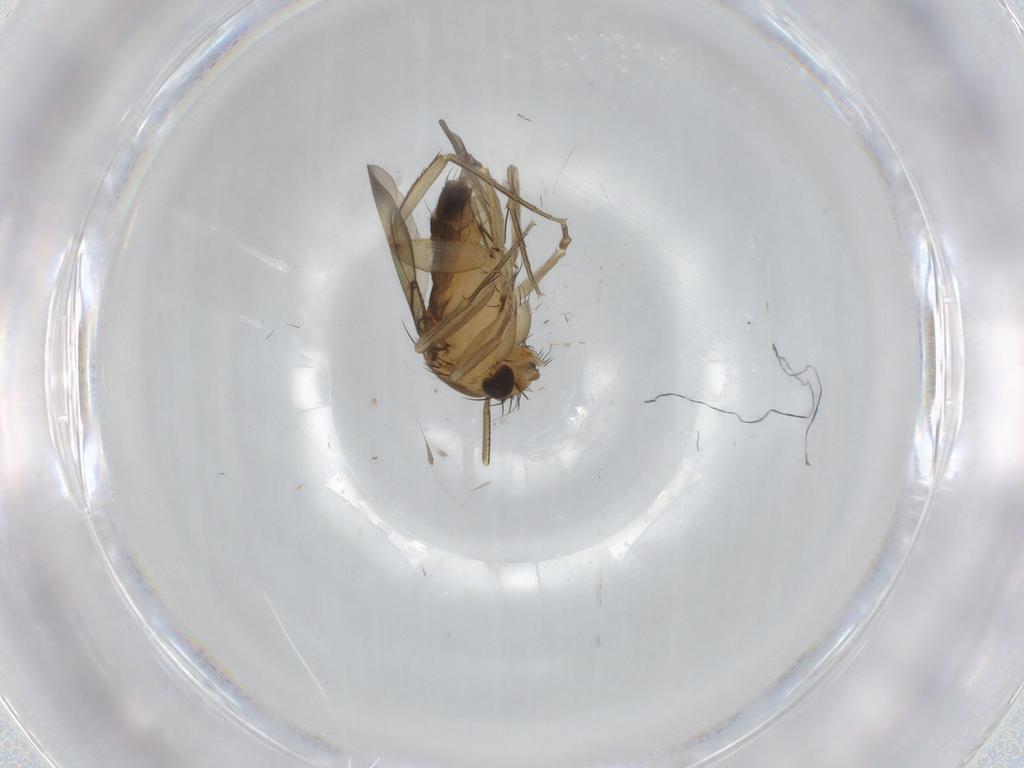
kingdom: Animalia
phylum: Arthropoda
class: Insecta
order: Diptera
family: Phoridae
